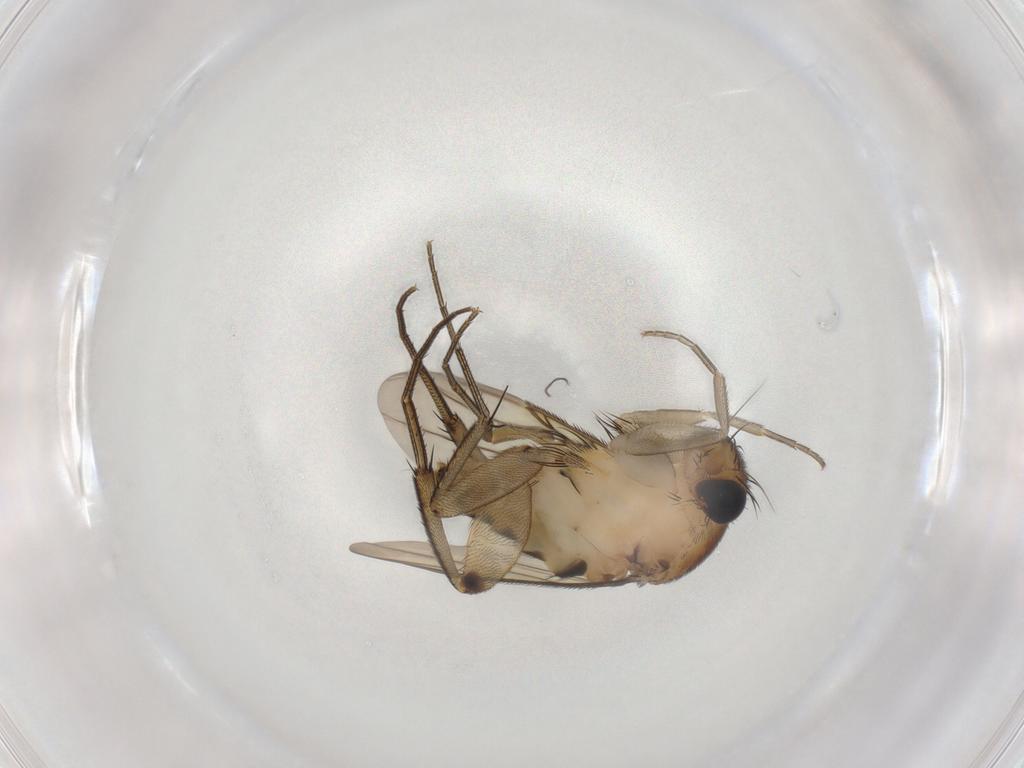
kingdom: Animalia
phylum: Arthropoda
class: Insecta
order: Diptera
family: Phoridae
